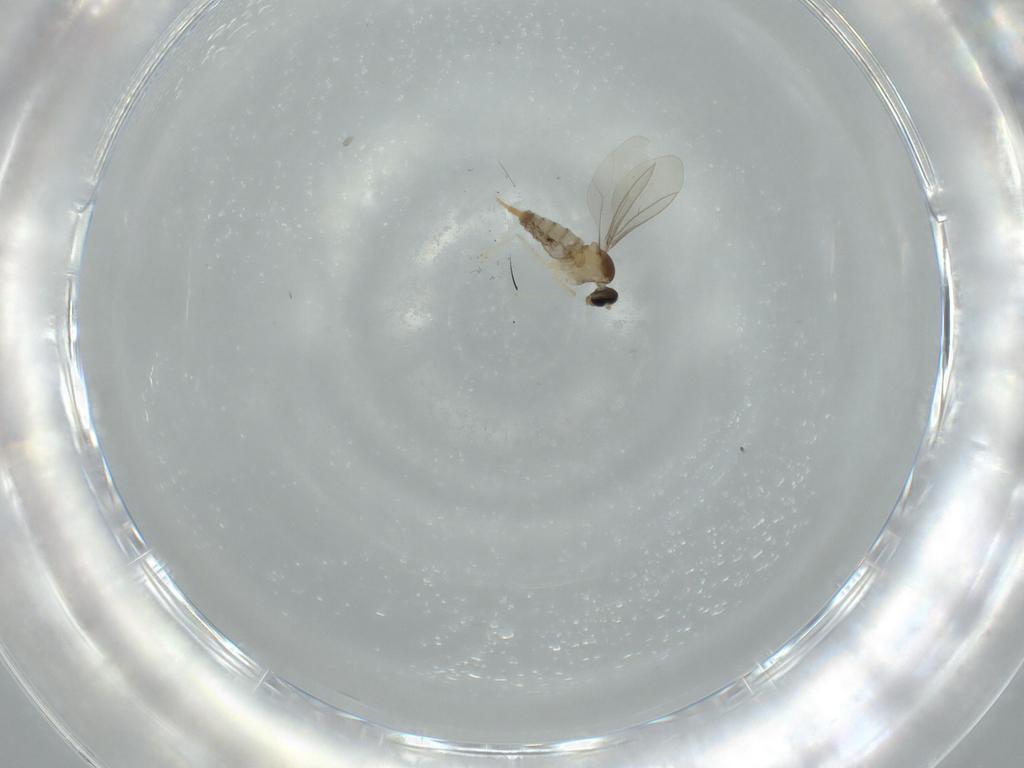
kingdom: Animalia
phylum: Arthropoda
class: Insecta
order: Diptera
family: Cecidomyiidae
